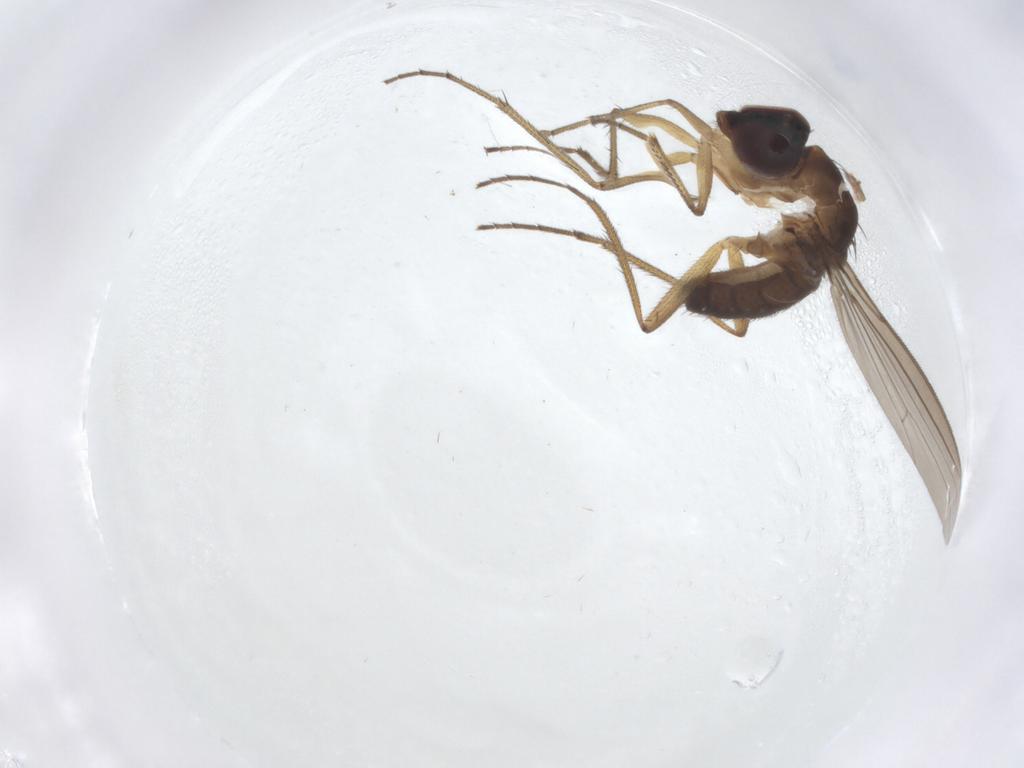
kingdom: Animalia
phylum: Arthropoda
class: Insecta
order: Diptera
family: Dolichopodidae
